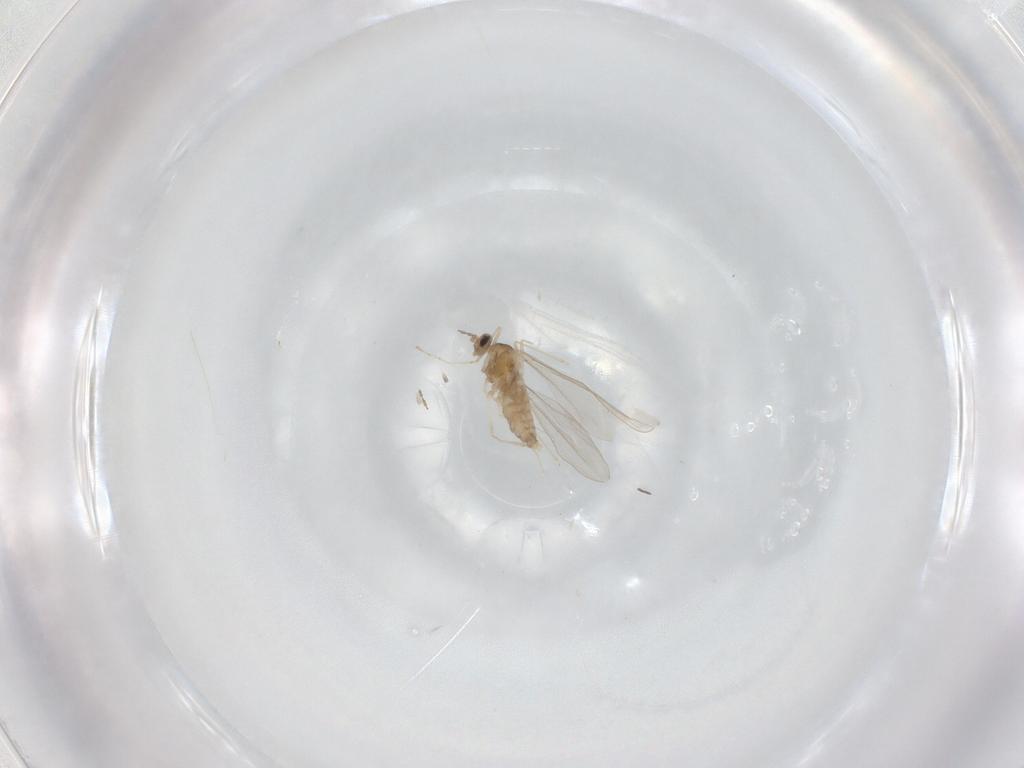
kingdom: Animalia
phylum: Arthropoda
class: Insecta
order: Diptera
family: Cecidomyiidae
